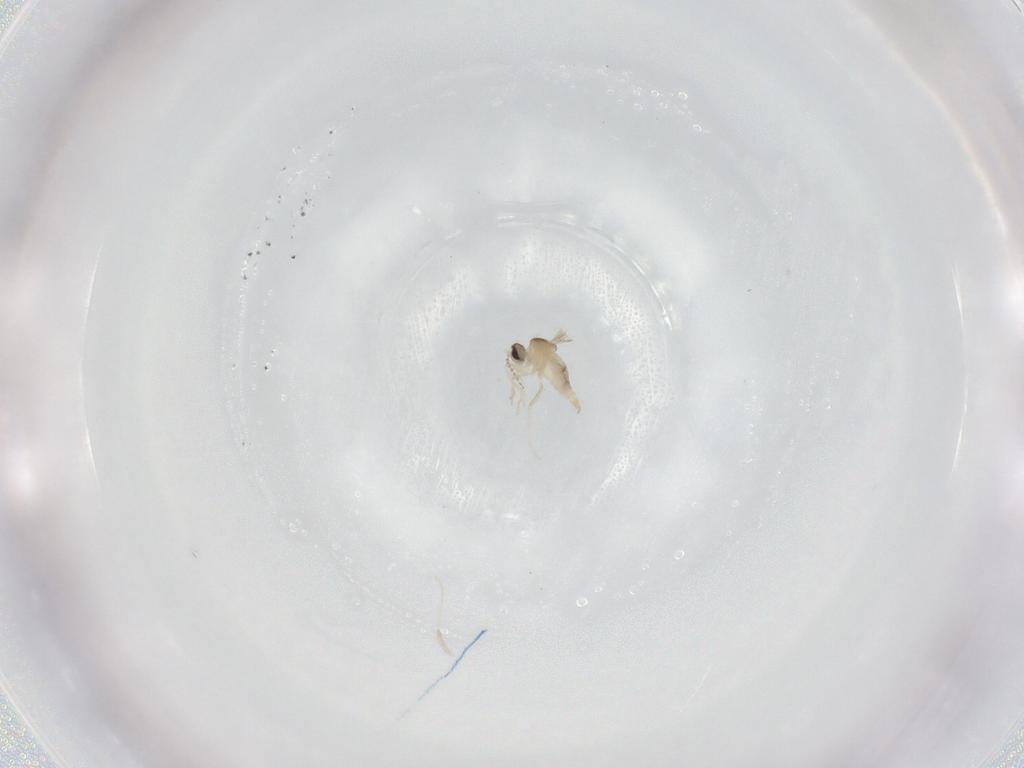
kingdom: Animalia
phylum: Arthropoda
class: Insecta
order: Diptera
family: Cecidomyiidae
